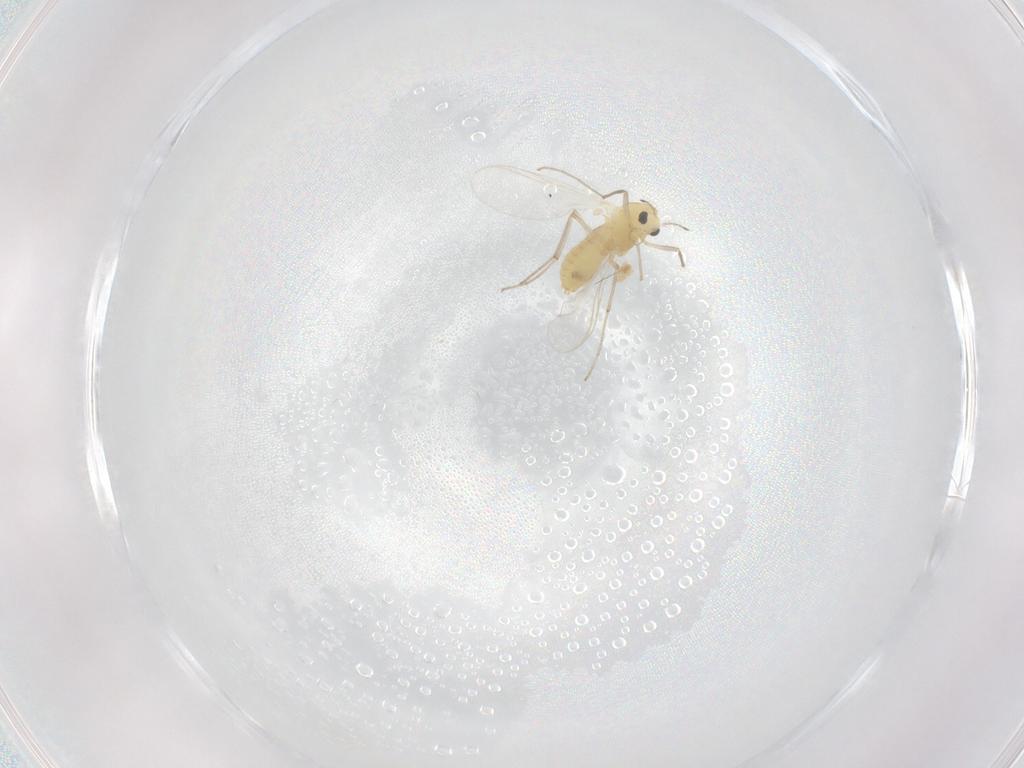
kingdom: Animalia
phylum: Arthropoda
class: Insecta
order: Diptera
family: Chironomidae
